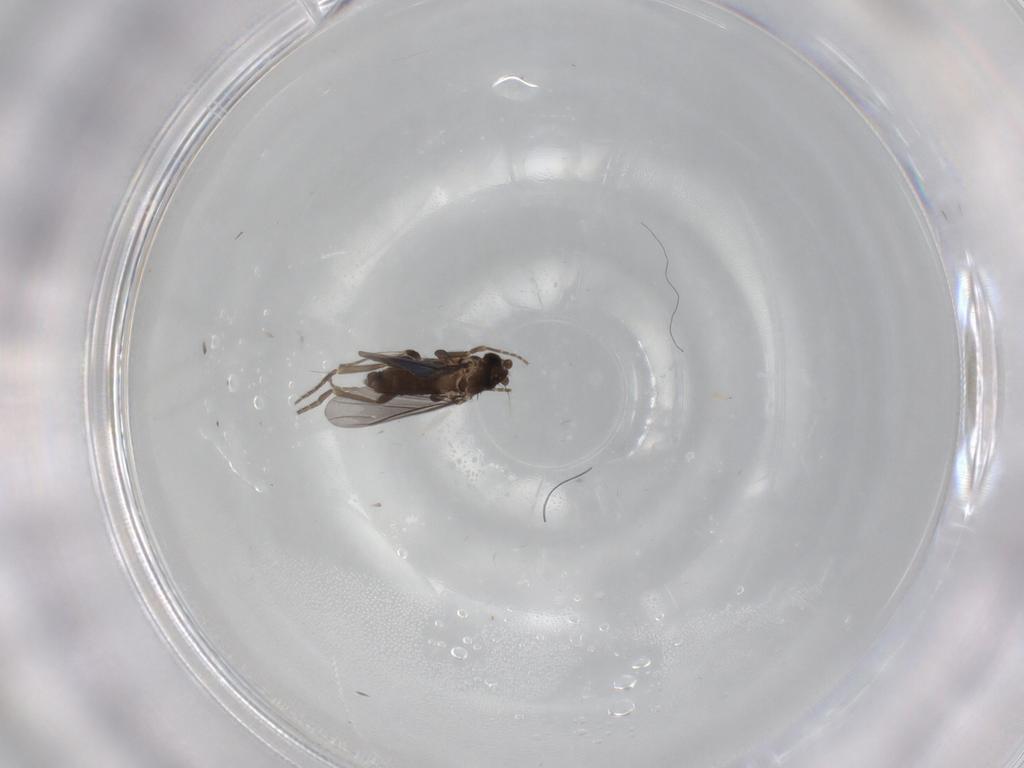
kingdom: Animalia
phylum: Arthropoda
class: Insecta
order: Diptera
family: Phoridae
